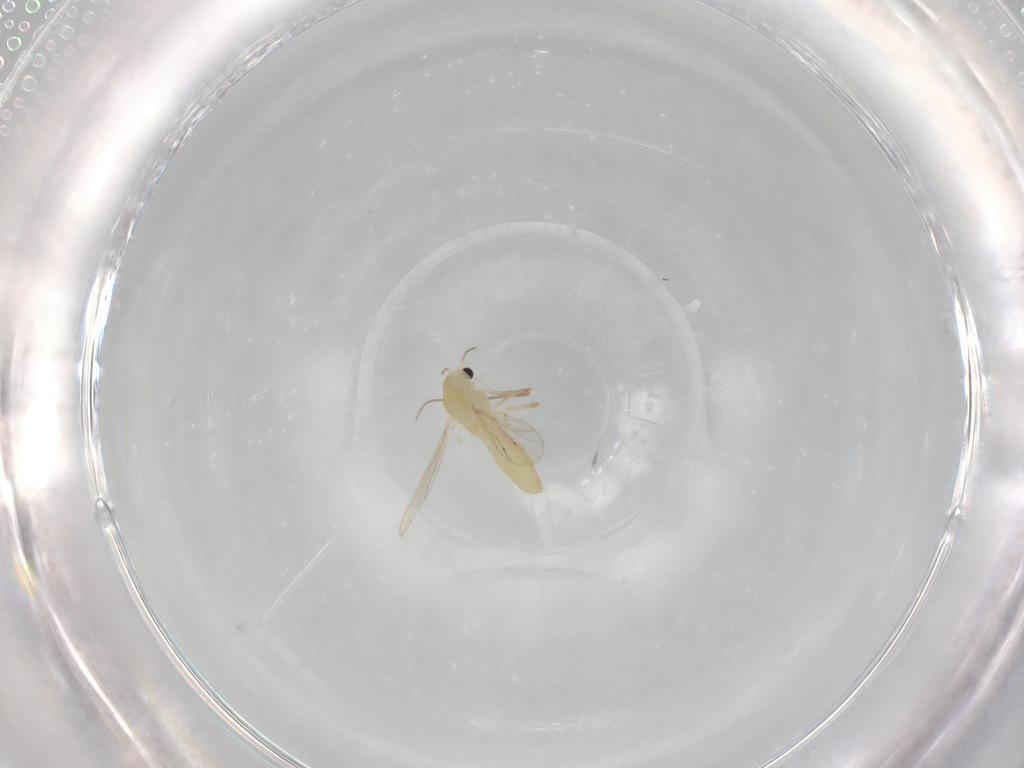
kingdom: Animalia
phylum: Arthropoda
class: Insecta
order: Diptera
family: Chironomidae
